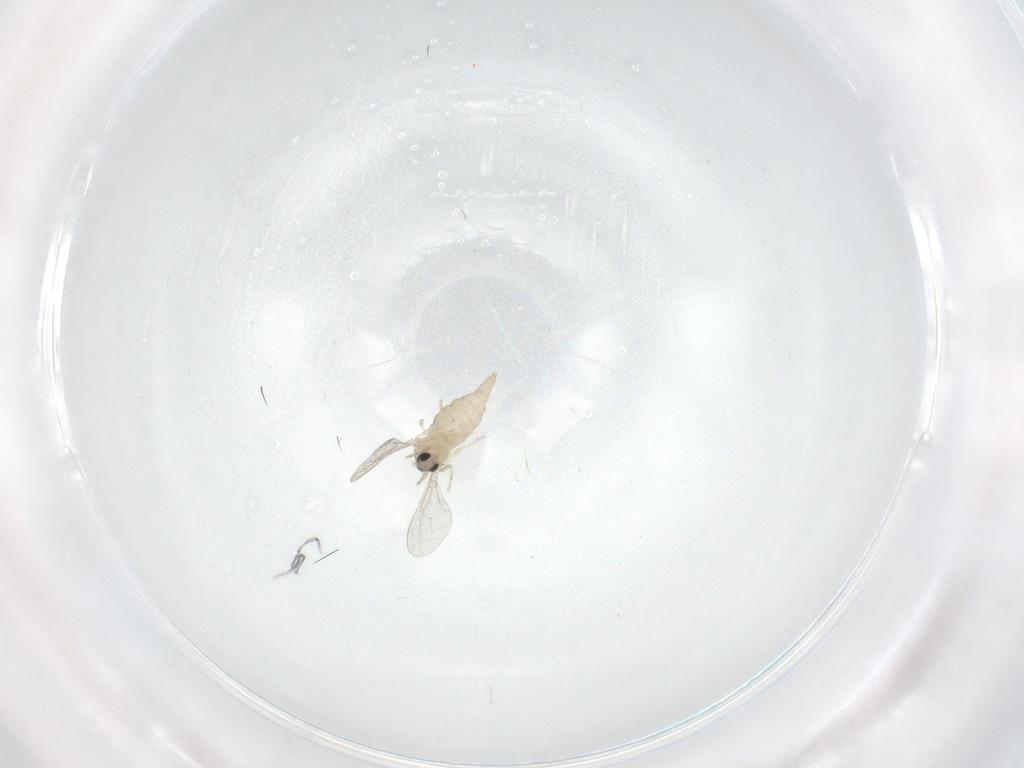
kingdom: Animalia
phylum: Arthropoda
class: Insecta
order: Diptera
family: Cecidomyiidae
